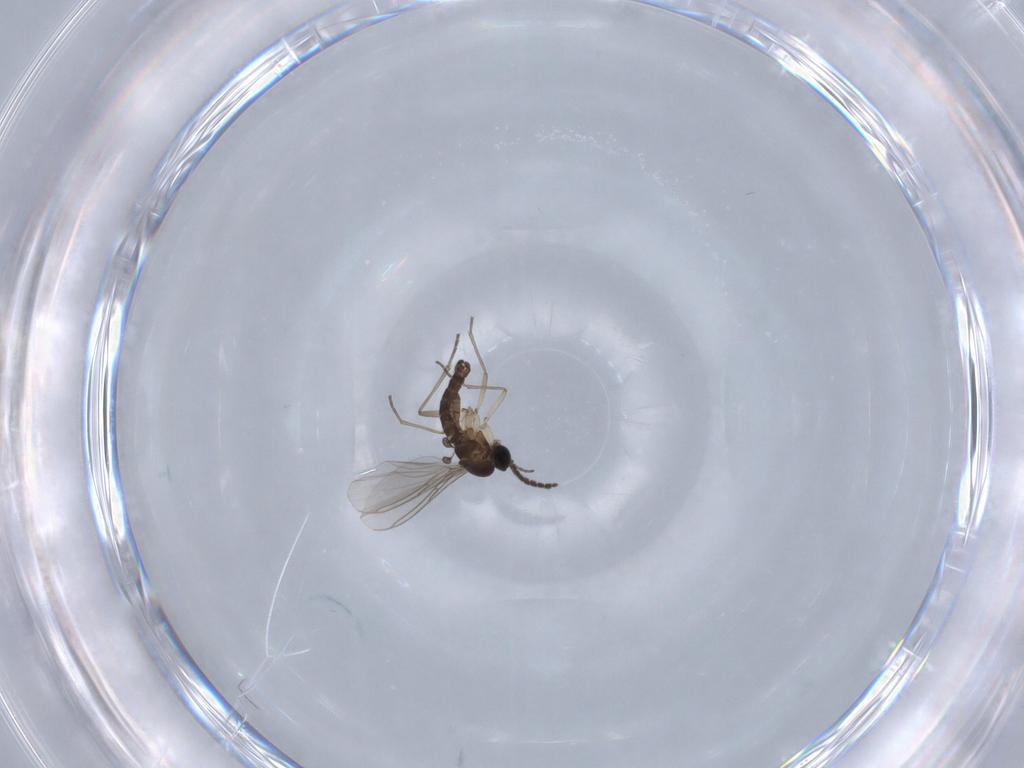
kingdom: Animalia
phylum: Arthropoda
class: Insecta
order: Diptera
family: Sciaridae
